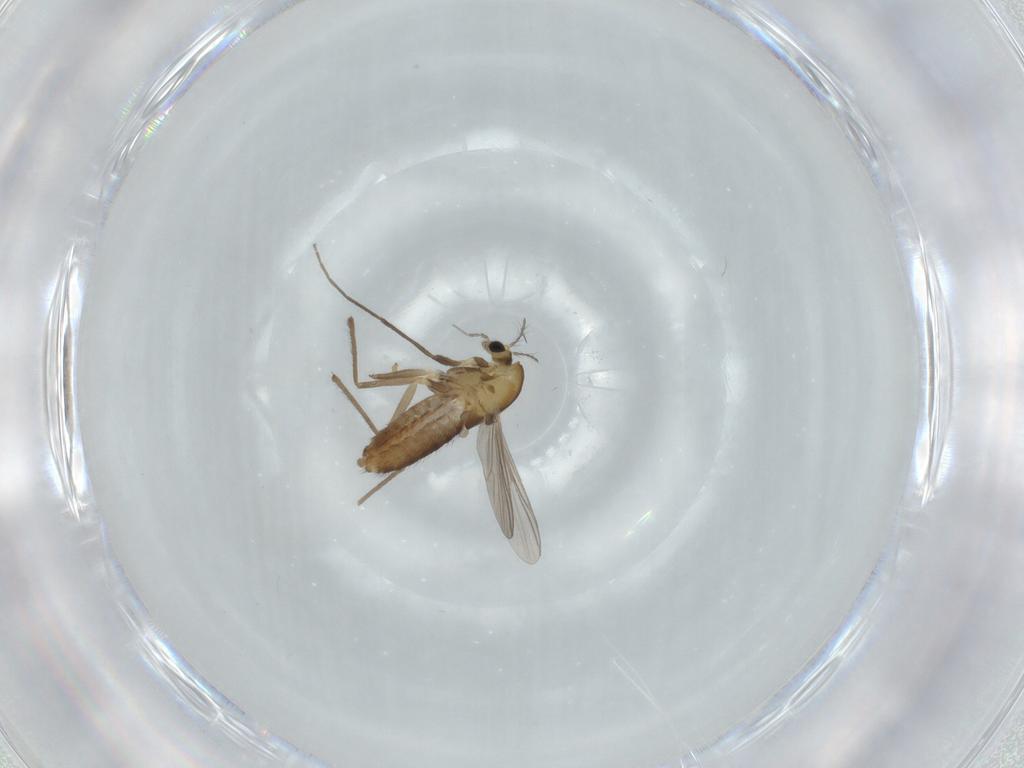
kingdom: Animalia
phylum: Arthropoda
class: Insecta
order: Diptera
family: Chironomidae
